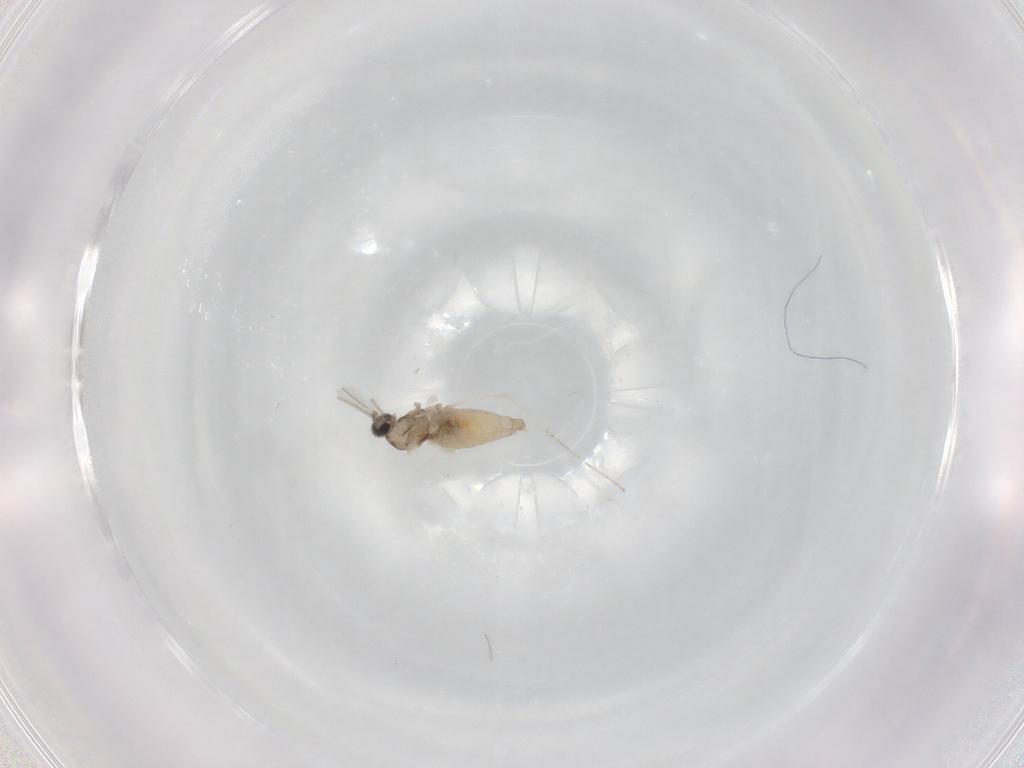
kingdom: Animalia
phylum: Arthropoda
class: Insecta
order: Diptera
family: Cecidomyiidae
